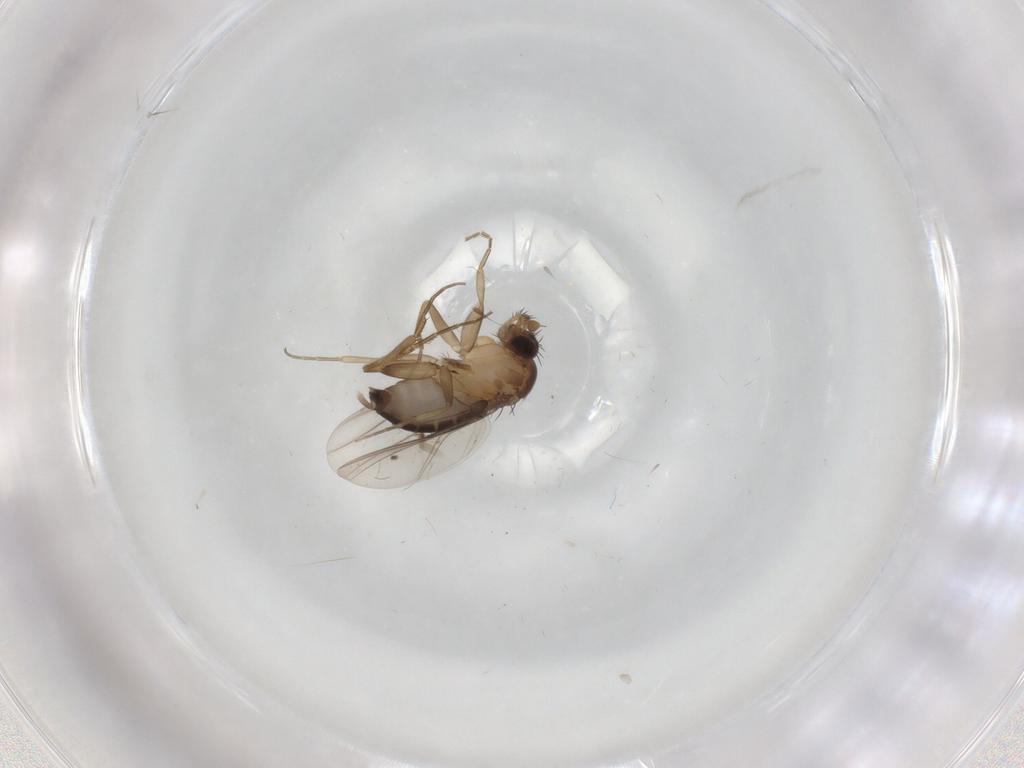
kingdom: Animalia
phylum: Arthropoda
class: Insecta
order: Diptera
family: Phoridae
